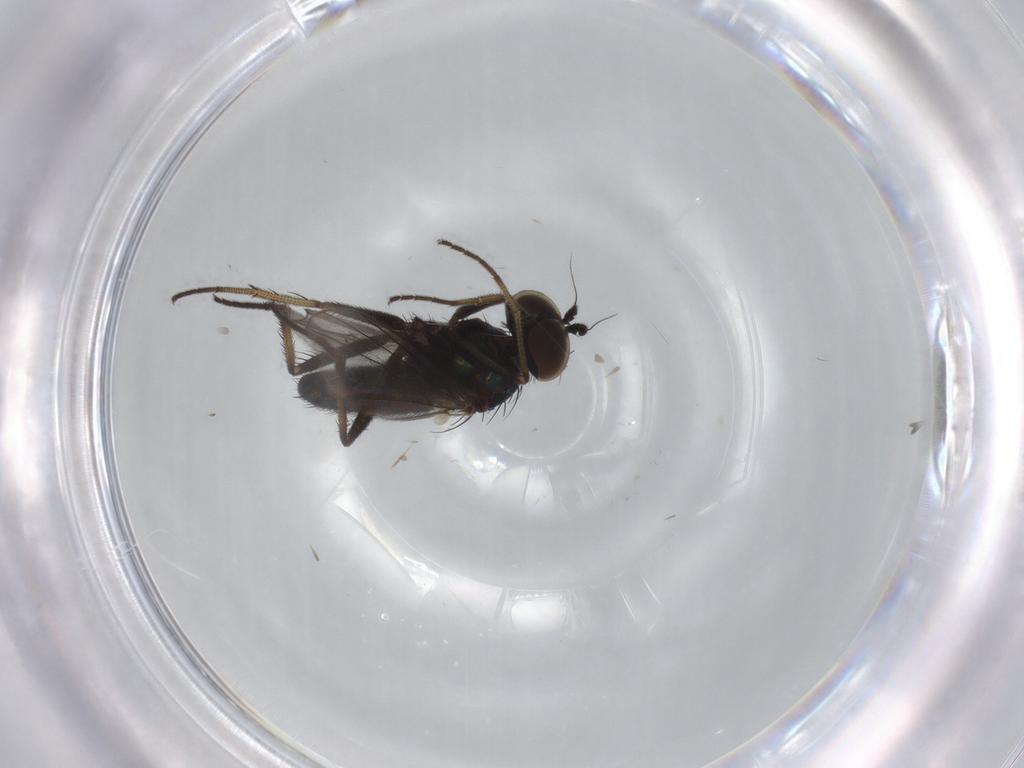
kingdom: Animalia
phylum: Arthropoda
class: Insecta
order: Diptera
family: Dolichopodidae
